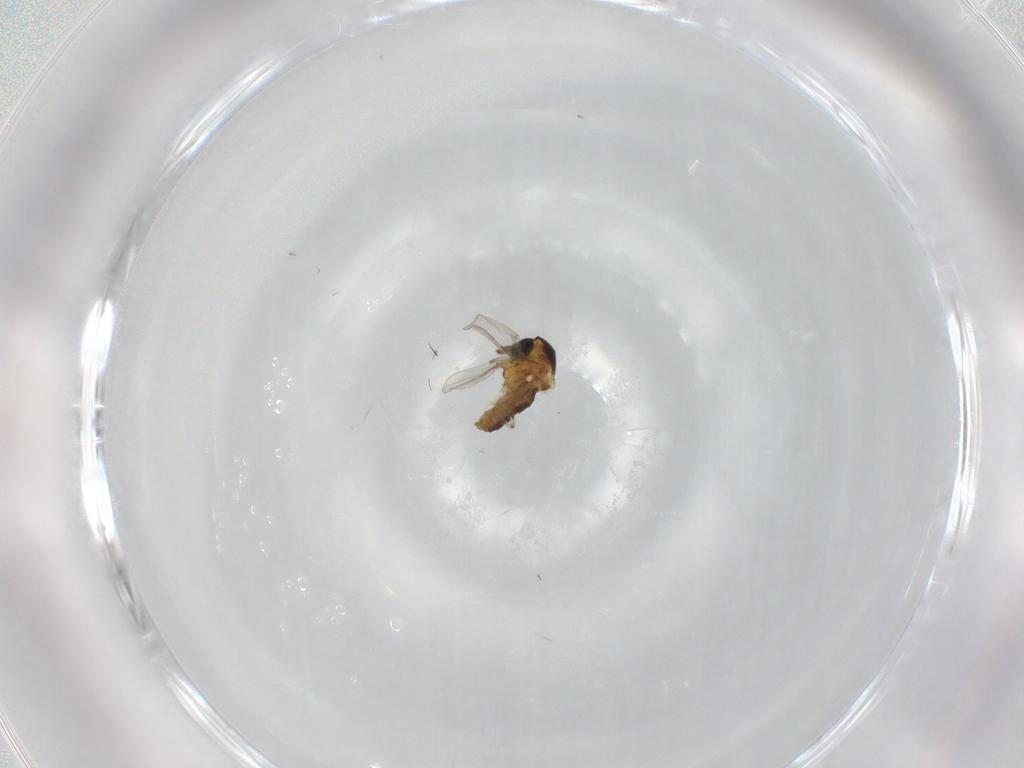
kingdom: Animalia
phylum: Arthropoda
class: Insecta
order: Diptera
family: Ceratopogonidae
